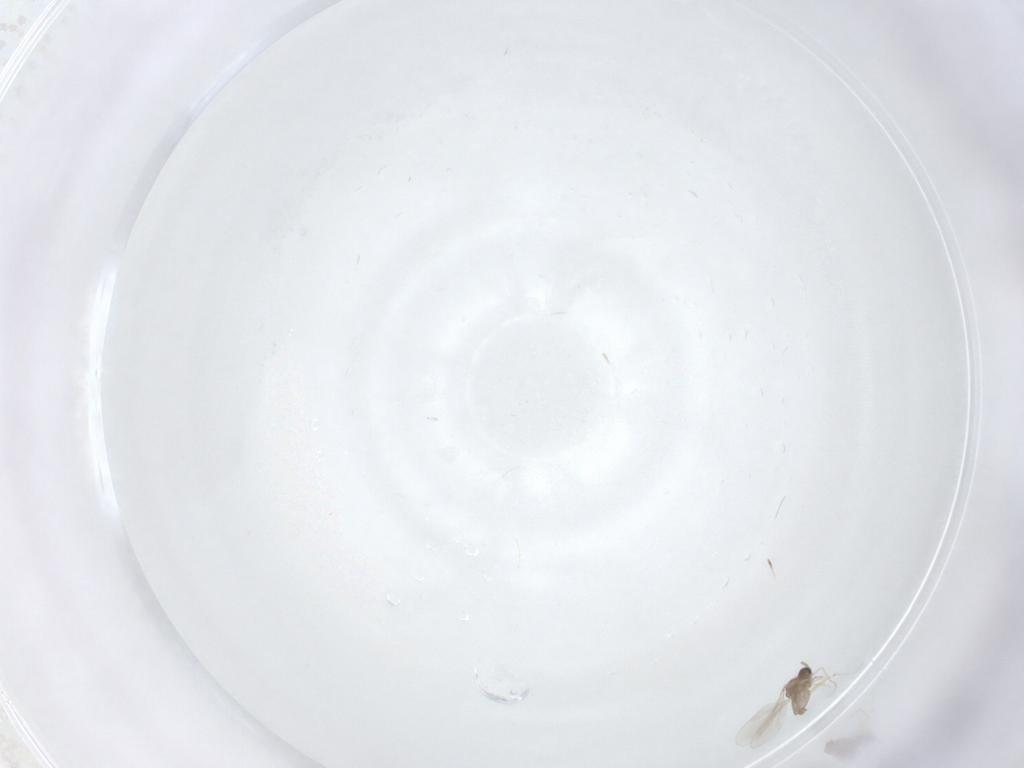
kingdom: Animalia
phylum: Arthropoda
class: Insecta
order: Diptera
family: Cecidomyiidae
